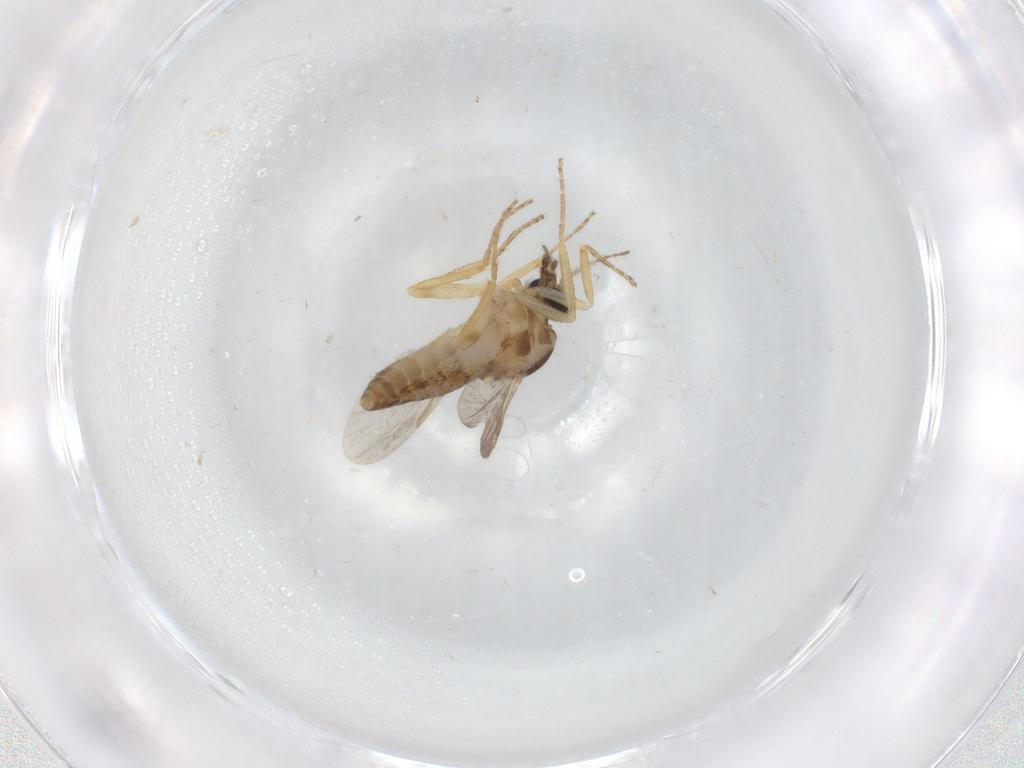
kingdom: Animalia
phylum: Arthropoda
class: Insecta
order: Diptera
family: Ceratopogonidae
